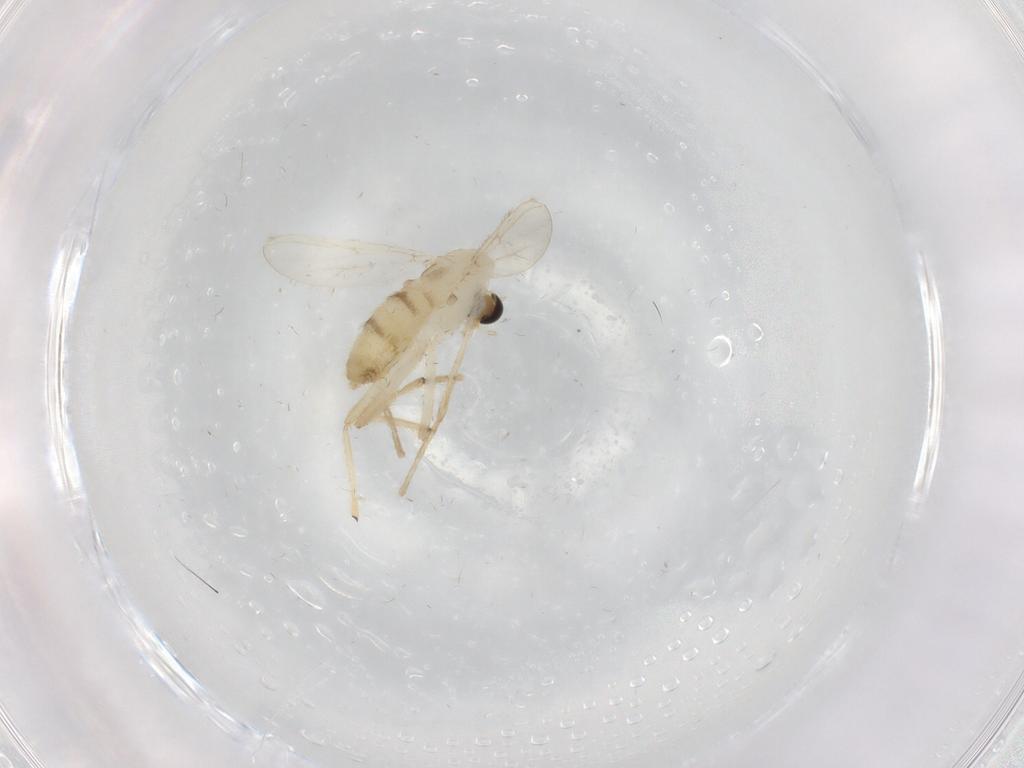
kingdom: Animalia
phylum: Arthropoda
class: Insecta
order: Diptera
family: Chironomidae
